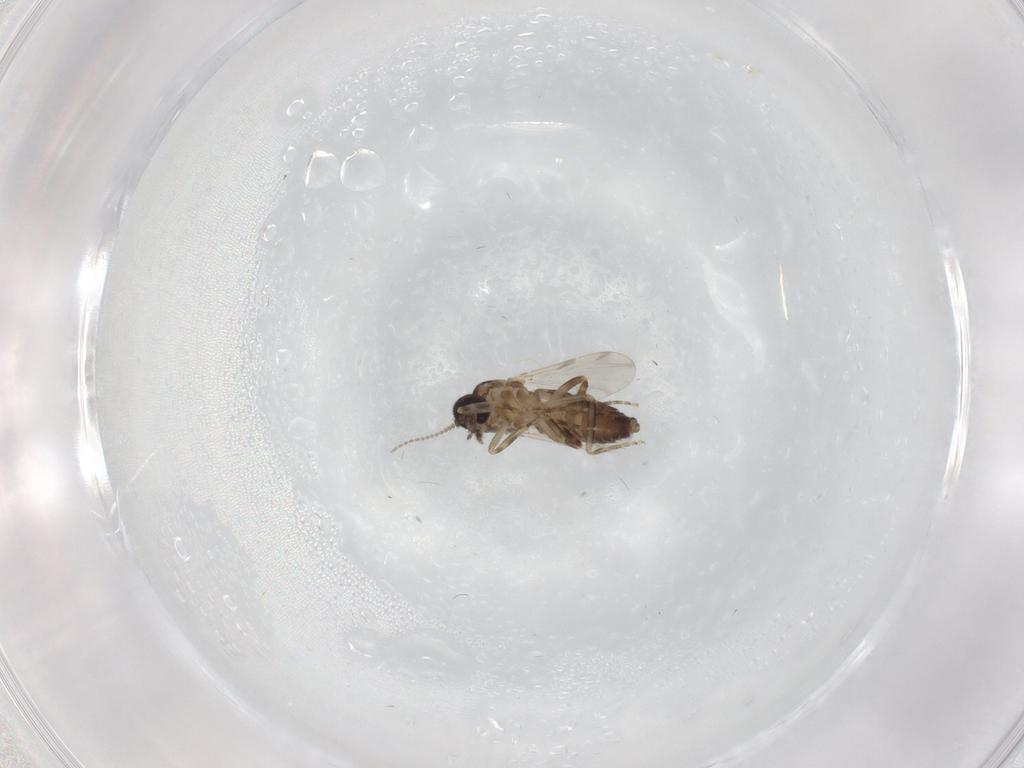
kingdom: Animalia
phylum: Arthropoda
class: Insecta
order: Diptera
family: Ceratopogonidae
